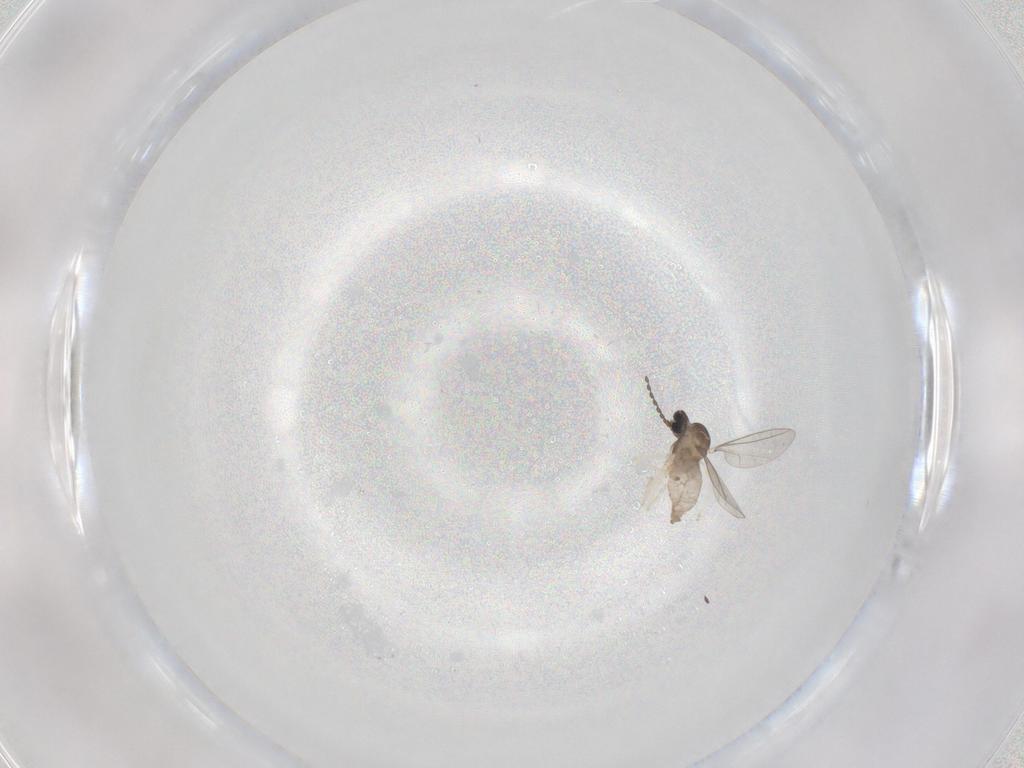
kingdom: Animalia
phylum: Arthropoda
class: Insecta
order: Diptera
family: Cecidomyiidae
